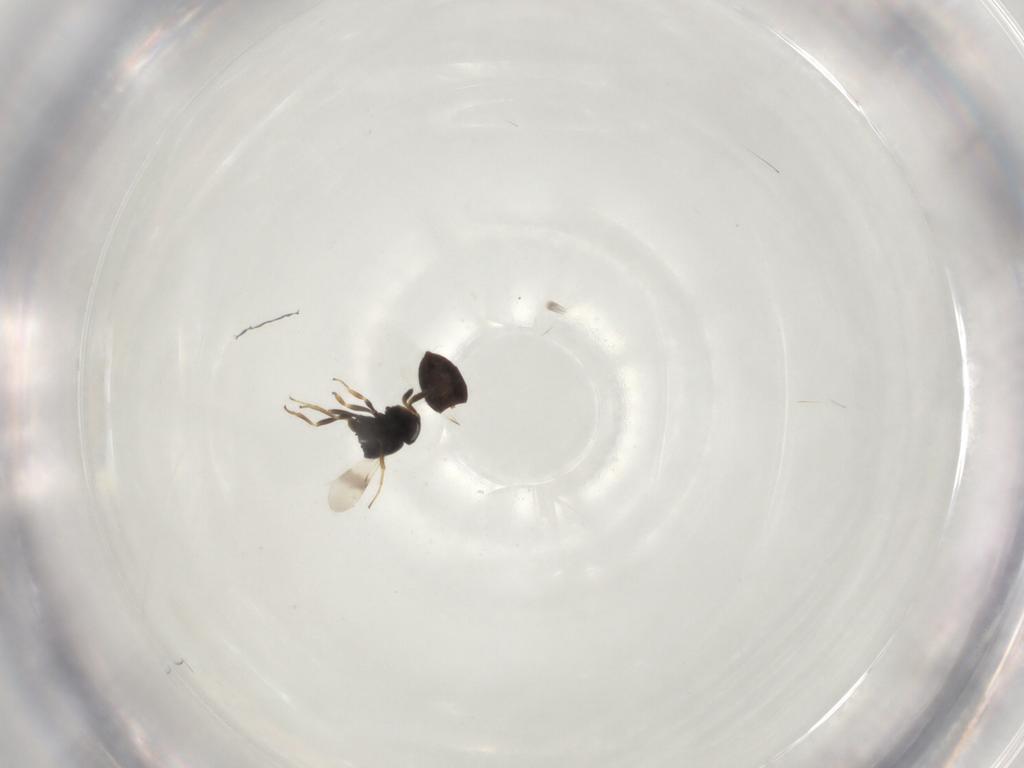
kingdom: Animalia
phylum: Arthropoda
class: Insecta
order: Hymenoptera
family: Scelionidae
